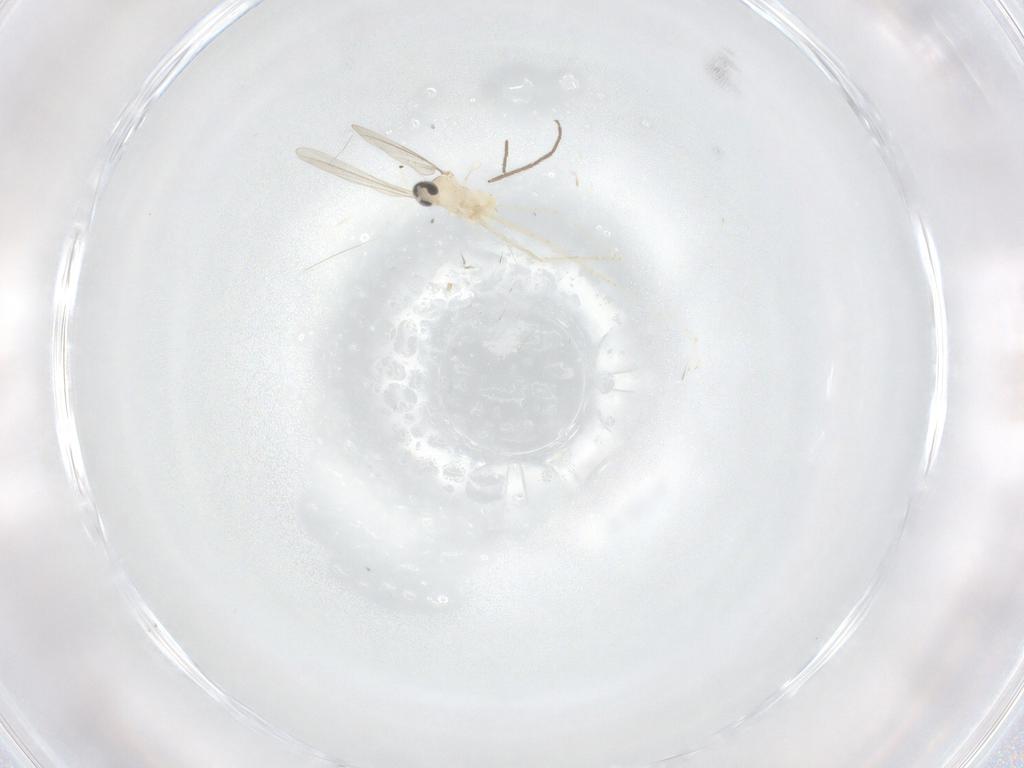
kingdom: Animalia
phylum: Arthropoda
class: Insecta
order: Diptera
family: Cecidomyiidae
